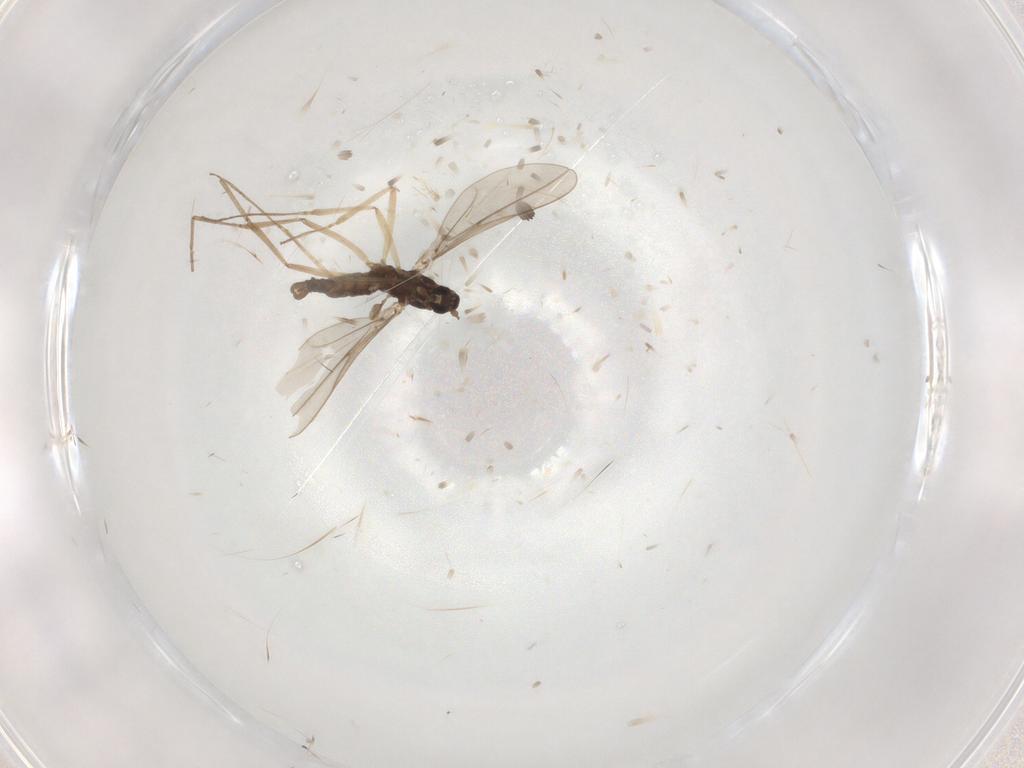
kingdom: Animalia
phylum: Arthropoda
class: Insecta
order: Diptera
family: Cecidomyiidae
